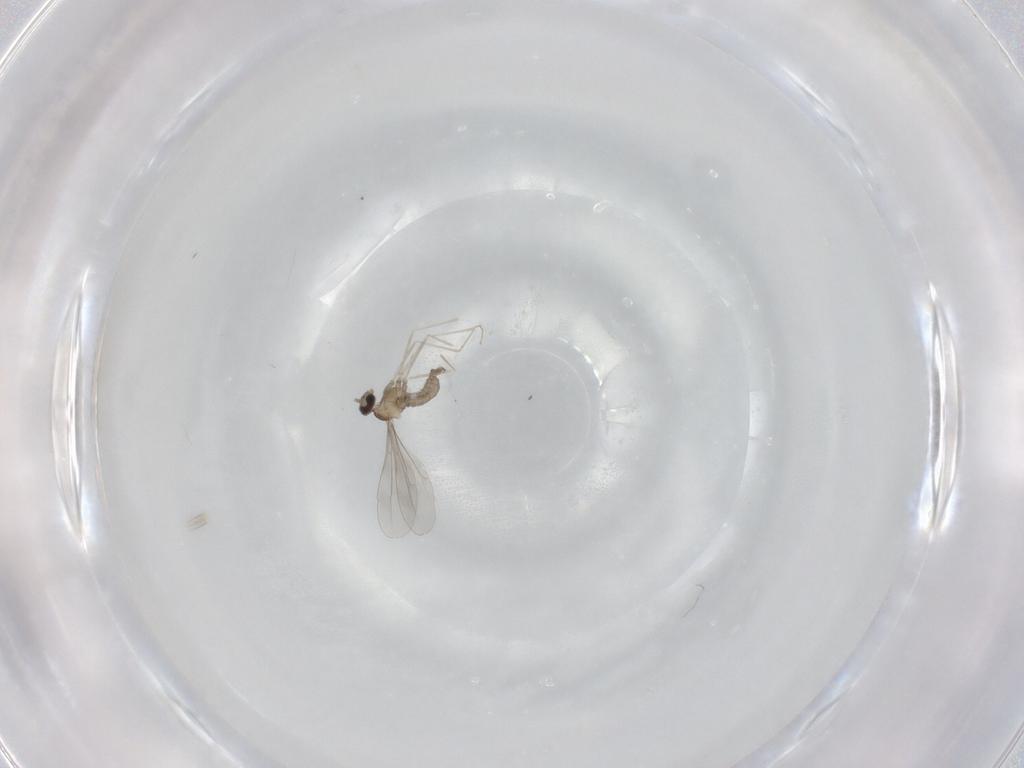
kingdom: Animalia
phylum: Arthropoda
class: Insecta
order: Diptera
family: Cecidomyiidae
